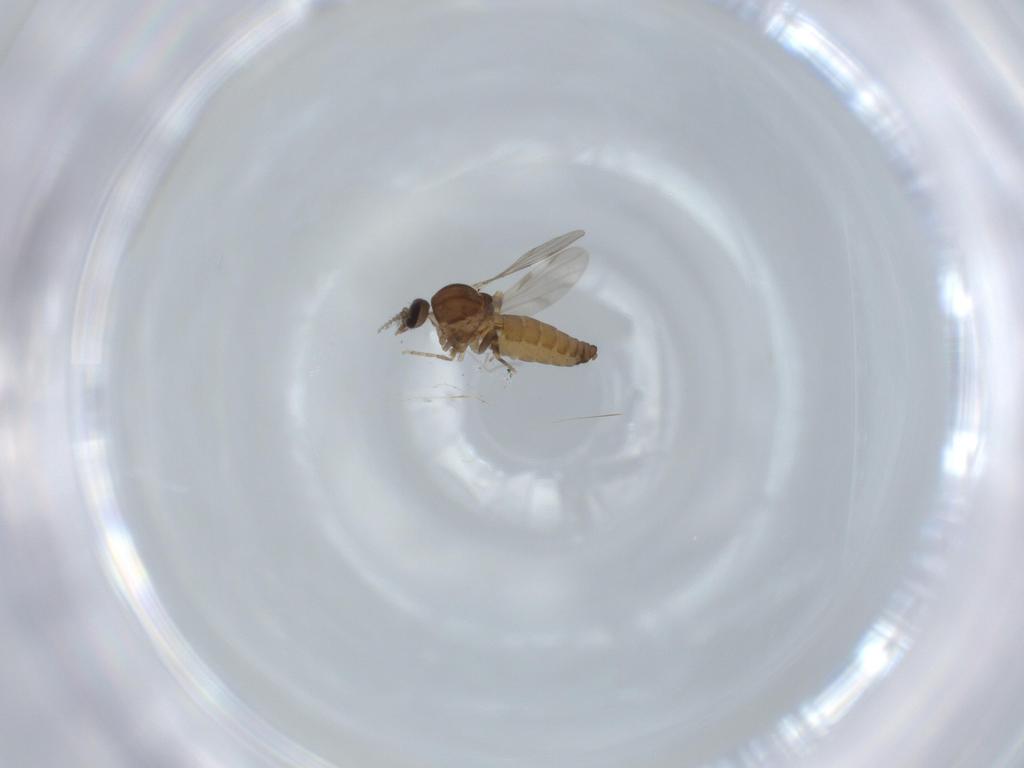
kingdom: Animalia
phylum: Arthropoda
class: Insecta
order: Diptera
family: Ceratopogonidae
